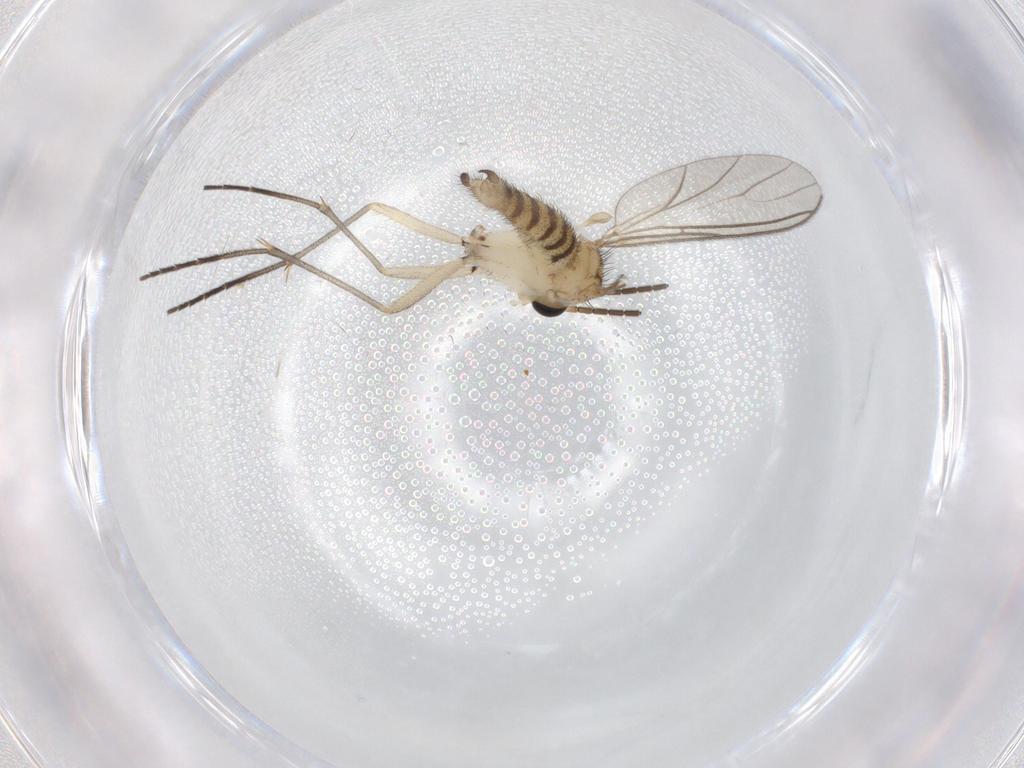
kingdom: Animalia
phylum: Arthropoda
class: Insecta
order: Diptera
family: Sciaridae
